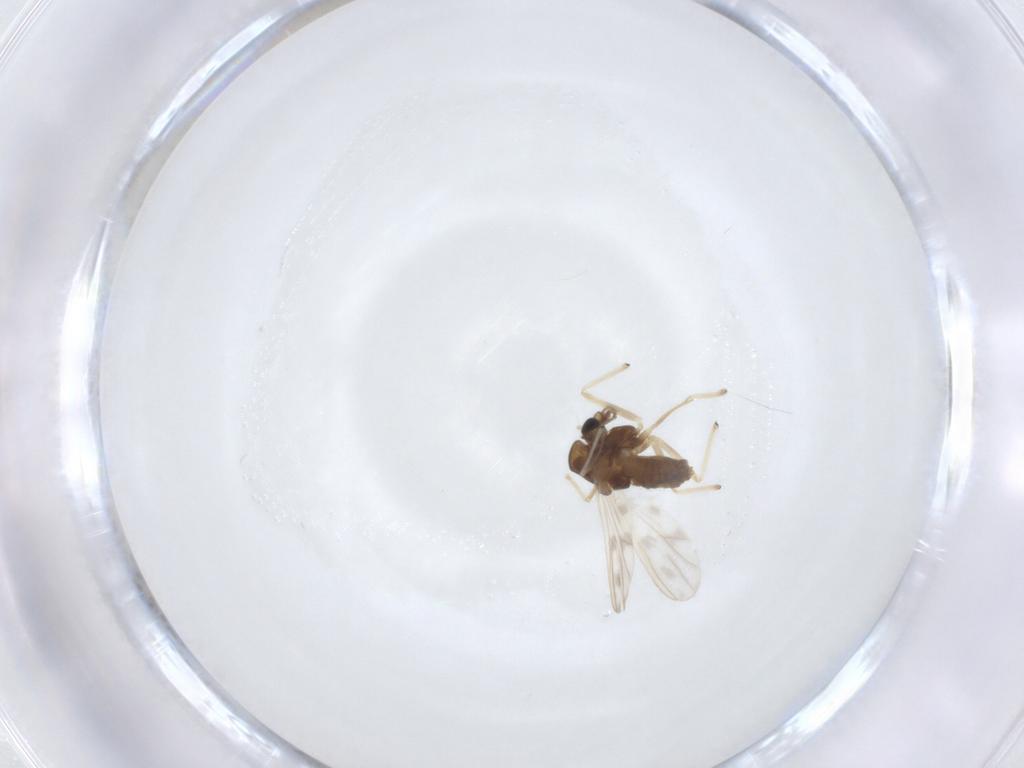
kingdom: Animalia
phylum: Arthropoda
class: Insecta
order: Diptera
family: Chironomidae
